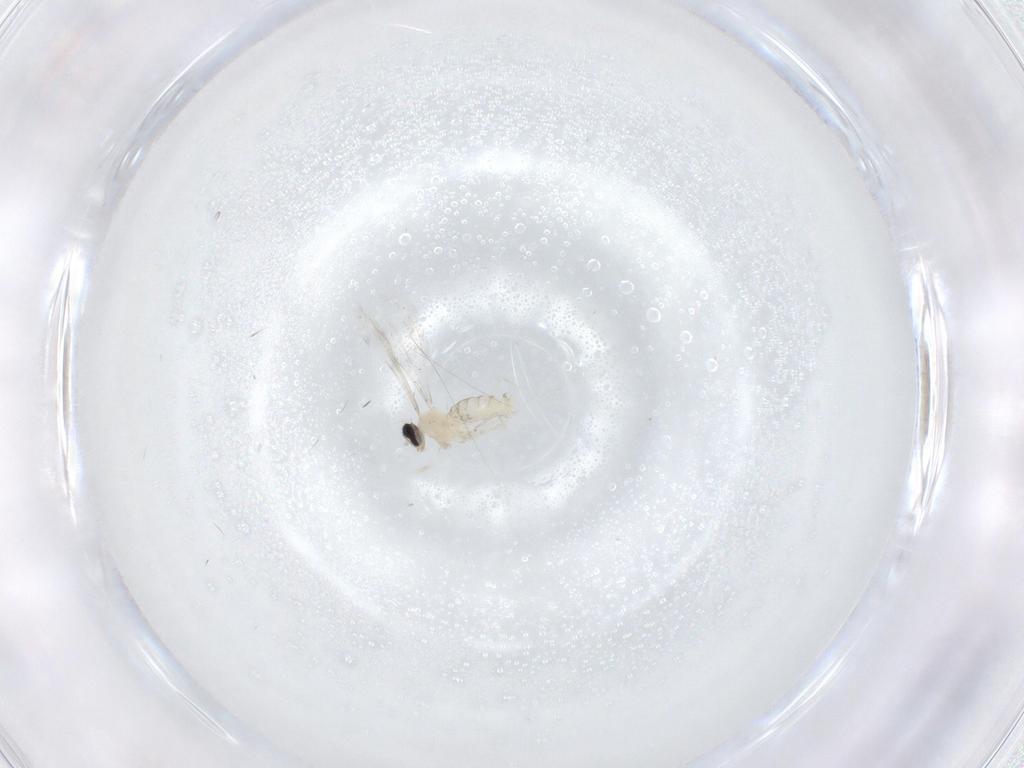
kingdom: Animalia
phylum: Arthropoda
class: Insecta
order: Diptera
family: Cecidomyiidae
